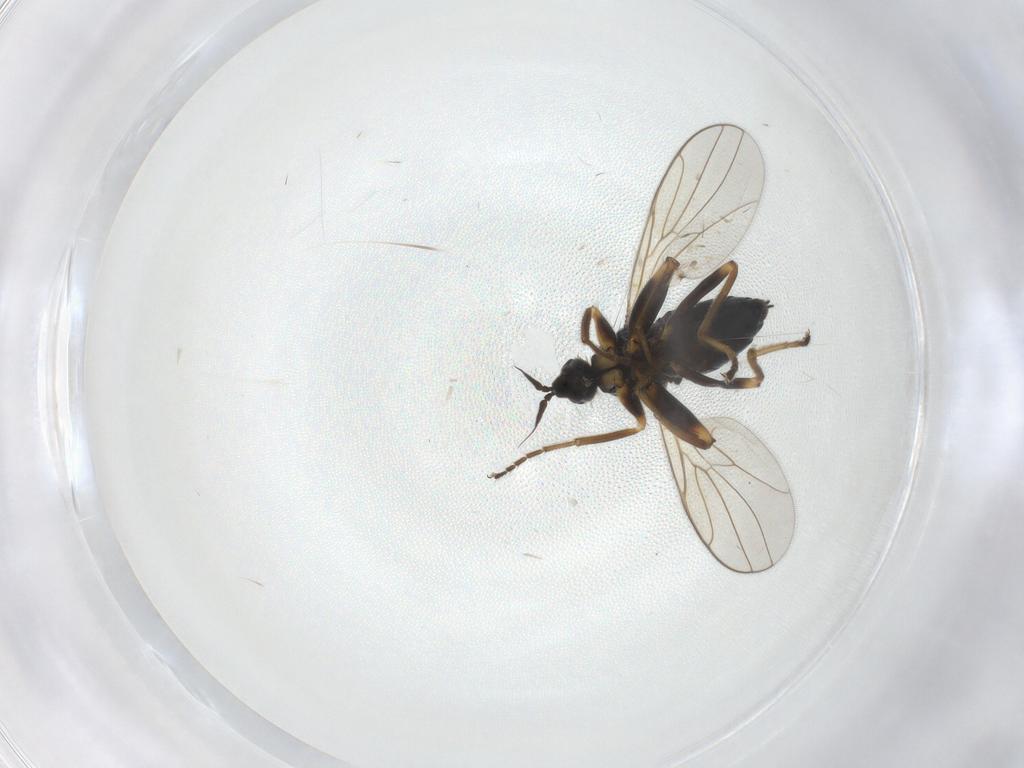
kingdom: Animalia
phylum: Arthropoda
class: Insecta
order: Diptera
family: Chironomidae
